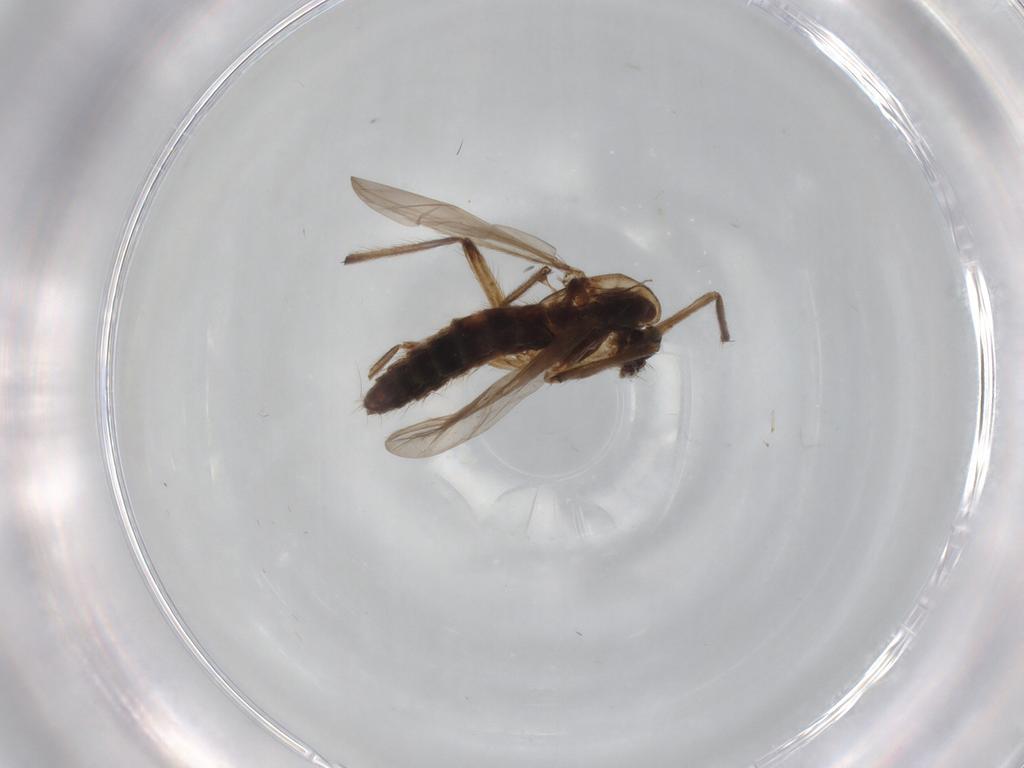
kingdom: Animalia
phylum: Arthropoda
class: Insecta
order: Diptera
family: Chironomidae
